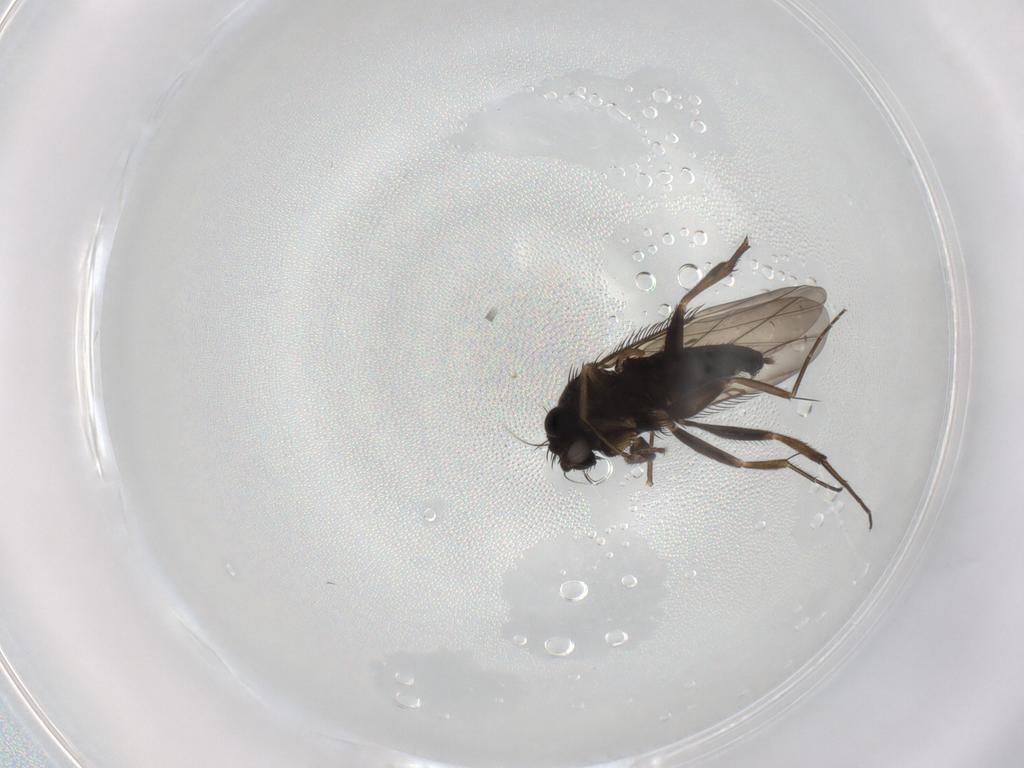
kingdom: Animalia
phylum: Arthropoda
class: Insecta
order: Diptera
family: Phoridae
